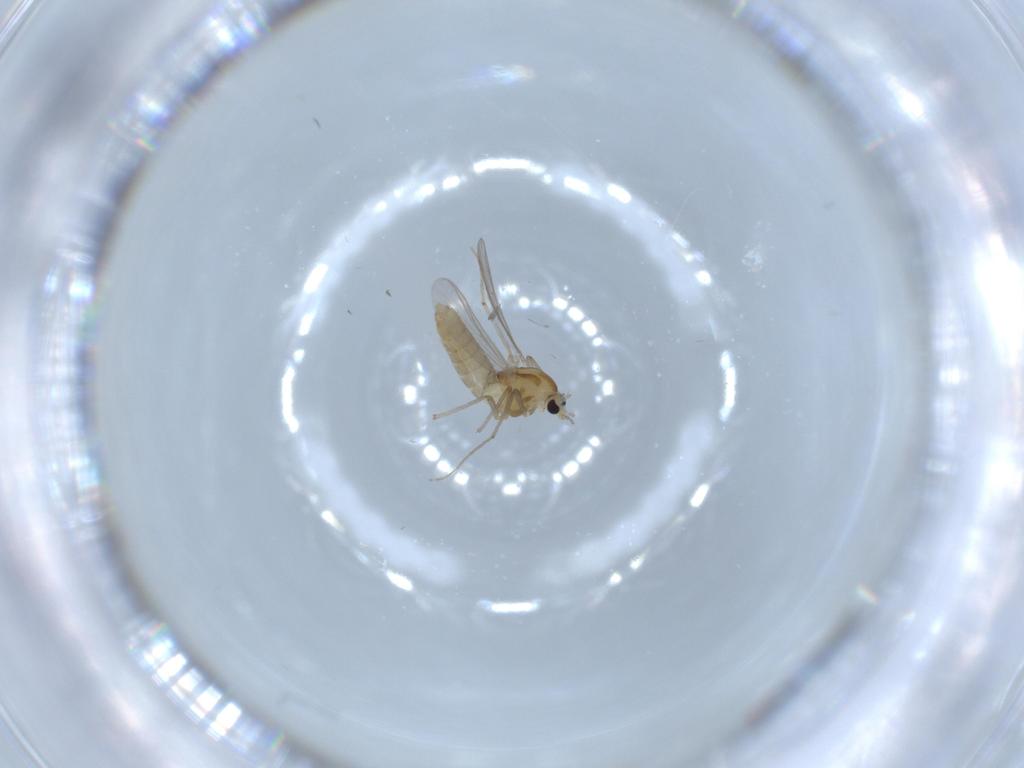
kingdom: Animalia
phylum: Arthropoda
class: Insecta
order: Diptera
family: Chironomidae
